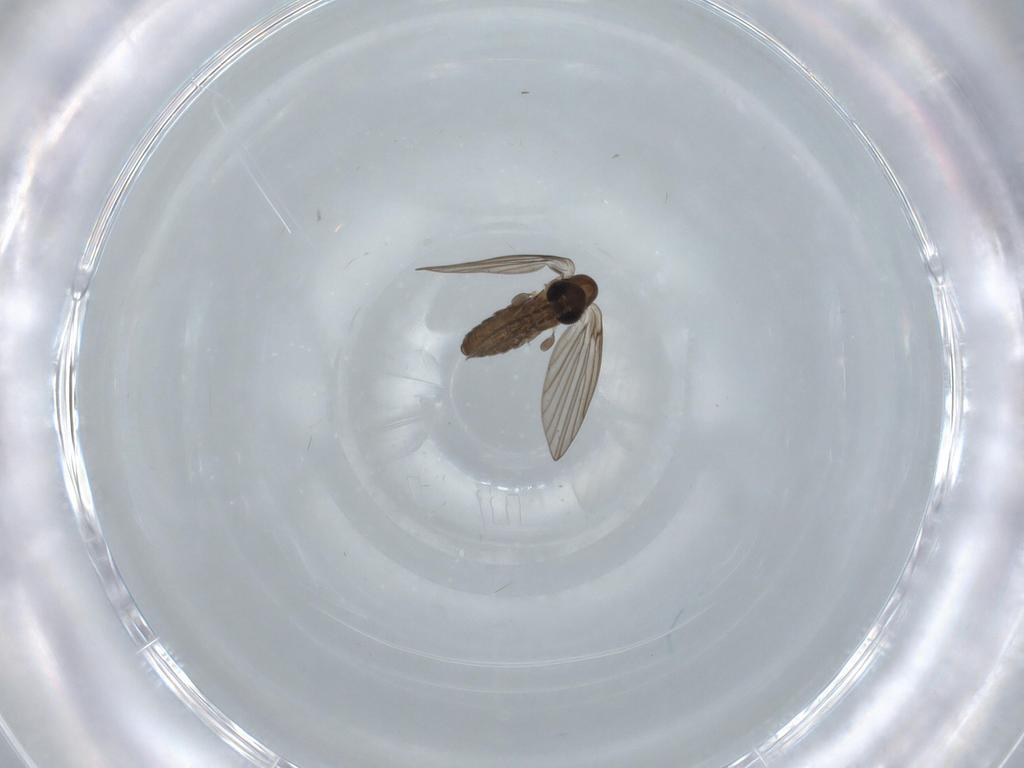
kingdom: Animalia
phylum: Arthropoda
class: Insecta
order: Diptera
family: Psychodidae
